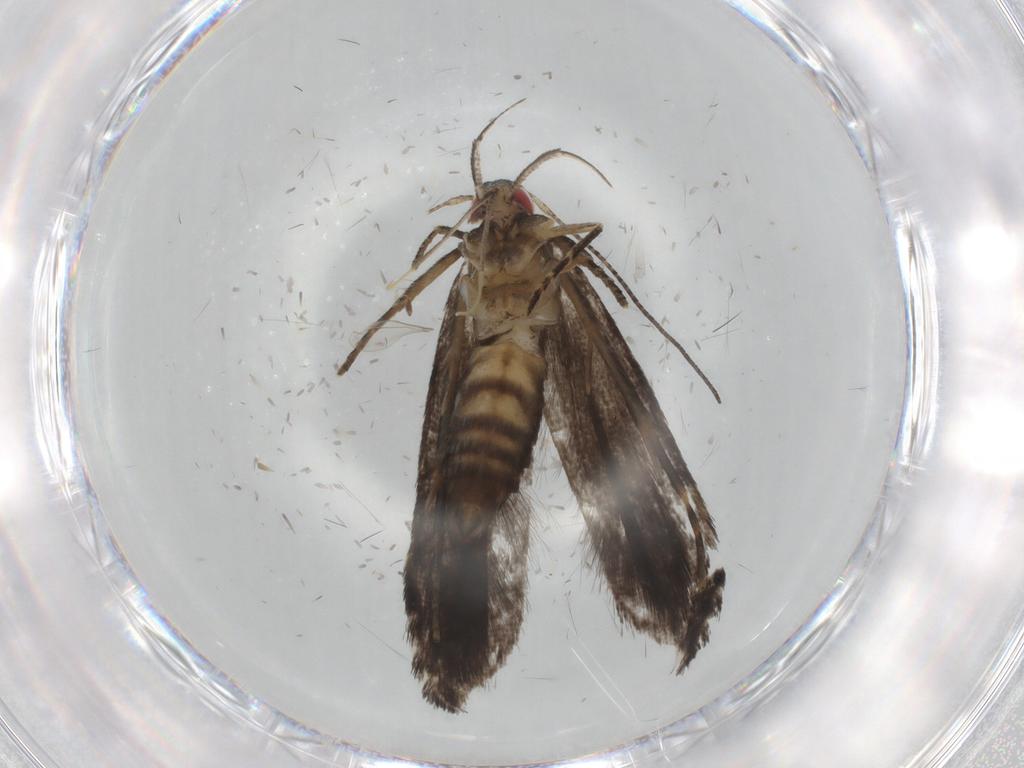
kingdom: Animalia
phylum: Arthropoda
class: Insecta
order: Lepidoptera
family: Gelechiidae
